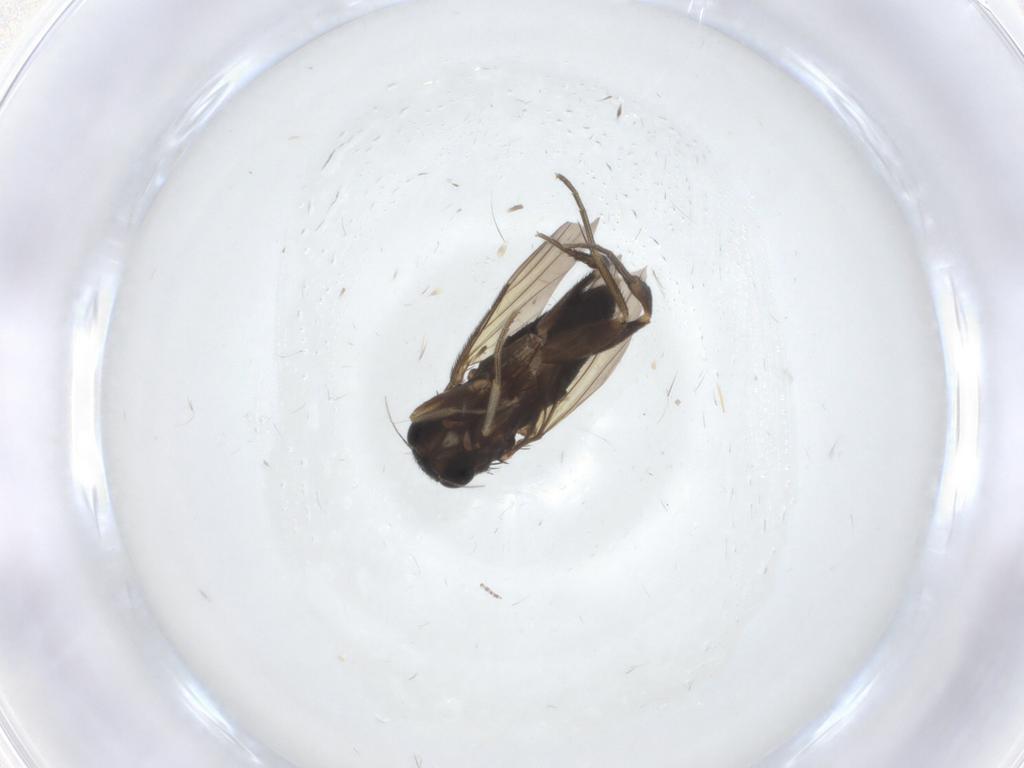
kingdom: Animalia
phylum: Arthropoda
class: Insecta
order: Diptera
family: Phoridae
